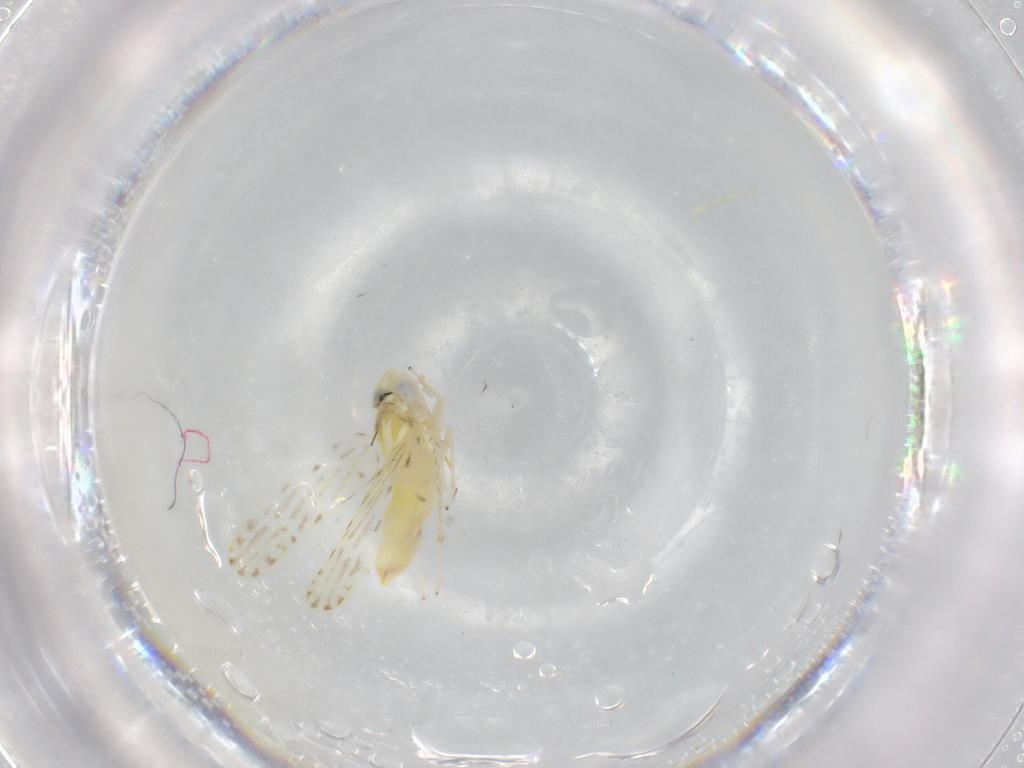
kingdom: Animalia
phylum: Arthropoda
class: Insecta
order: Hemiptera
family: Cicadellidae
